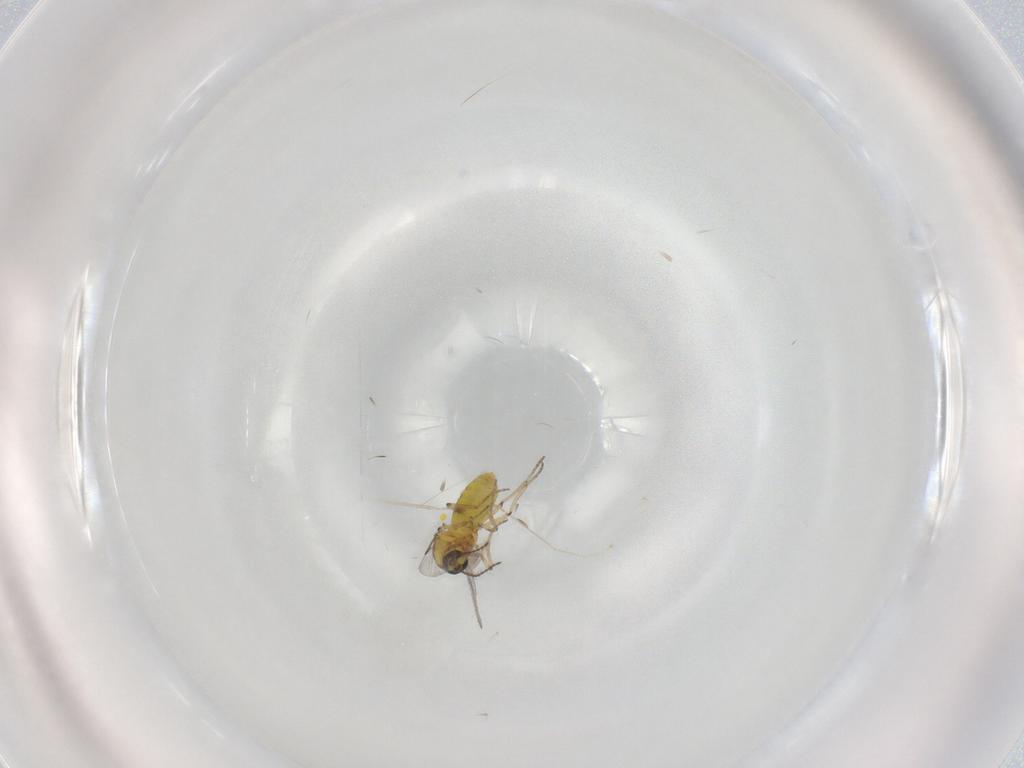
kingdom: Animalia
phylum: Arthropoda
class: Insecta
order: Diptera
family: Ceratopogonidae
